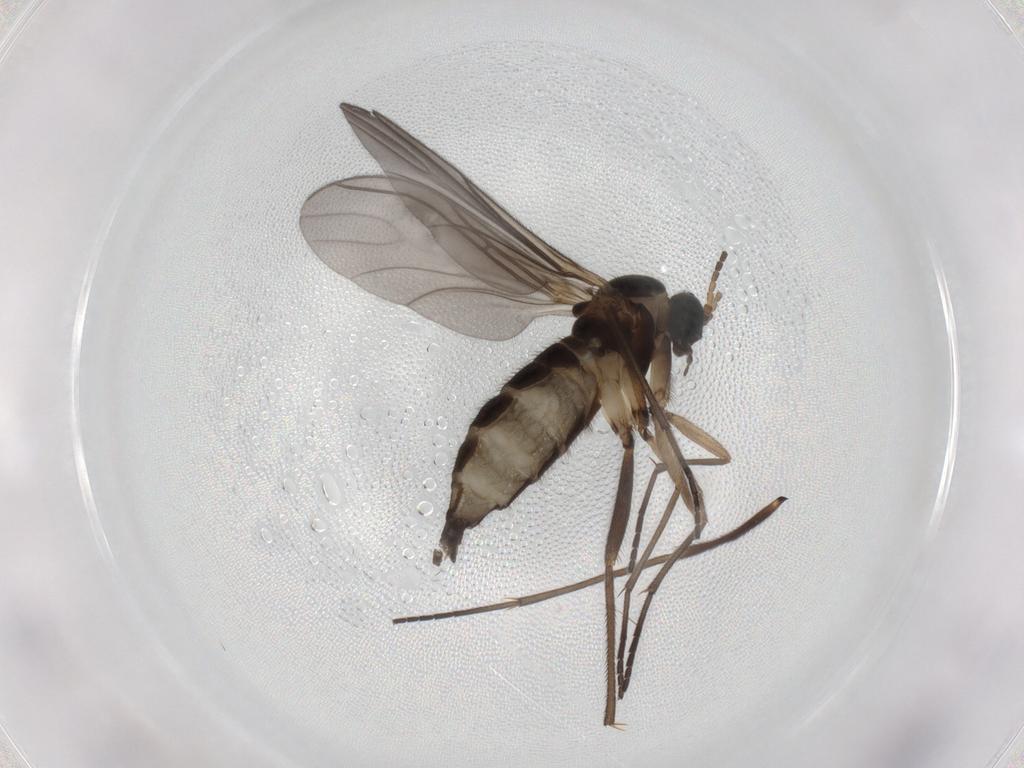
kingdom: Animalia
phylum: Arthropoda
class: Insecta
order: Diptera
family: Sciaridae
